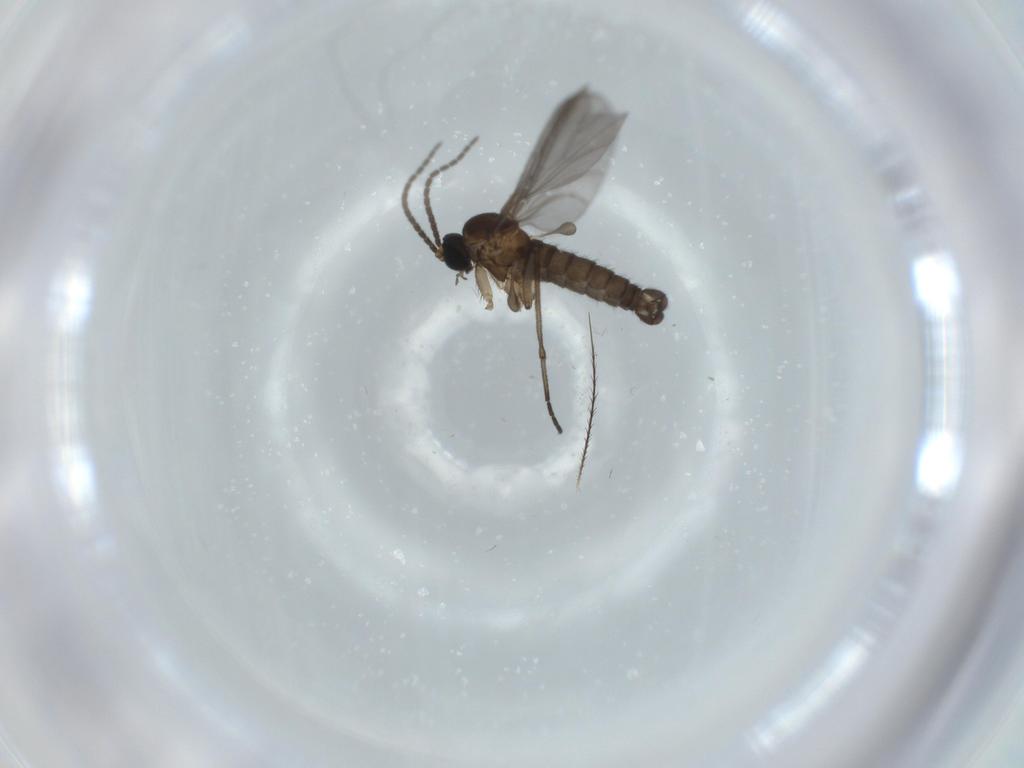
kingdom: Animalia
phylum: Arthropoda
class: Insecta
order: Diptera
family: Sciaridae
